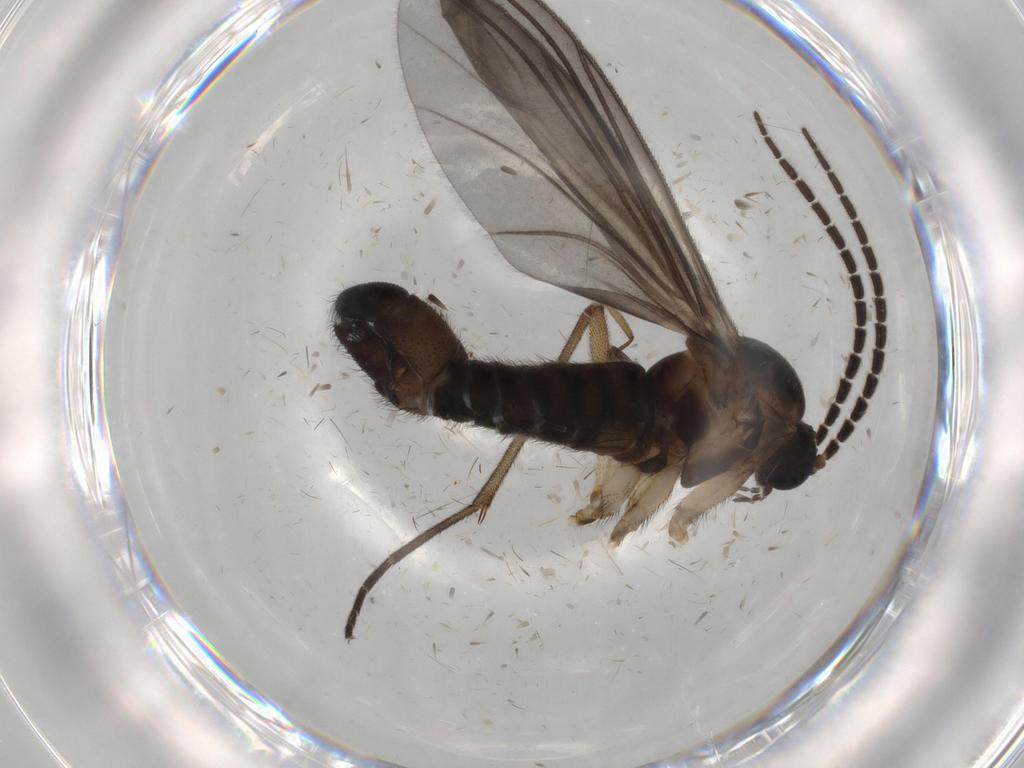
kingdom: Animalia
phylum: Arthropoda
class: Insecta
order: Diptera
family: Sciaridae
